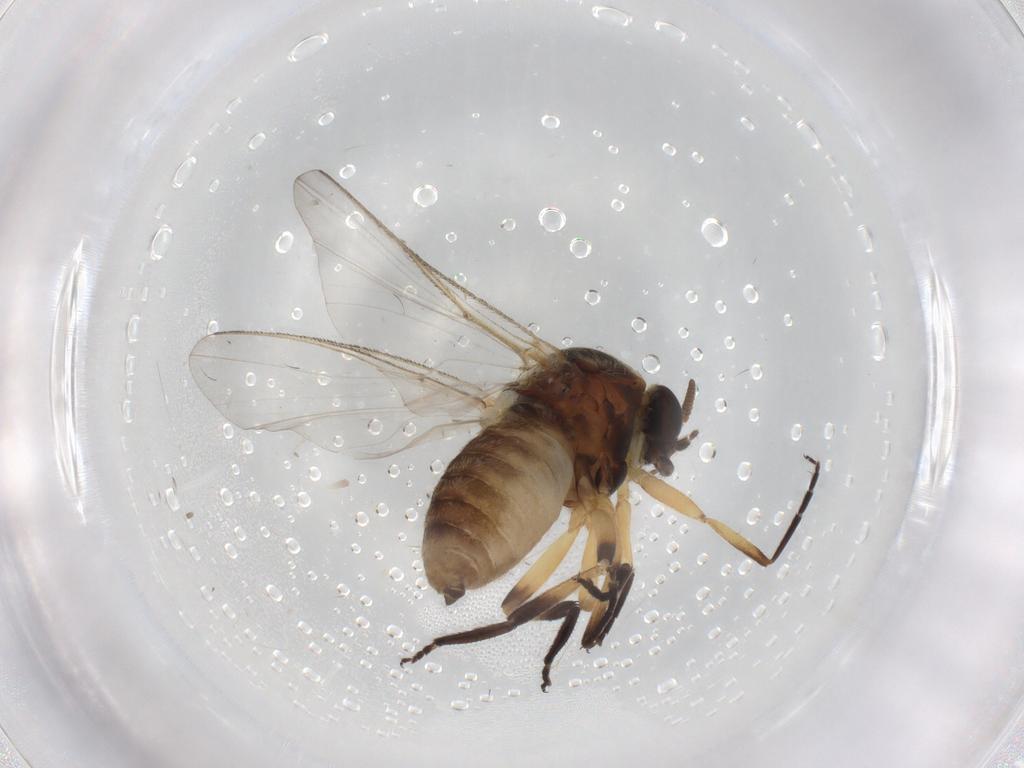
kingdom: Animalia
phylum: Arthropoda
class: Insecta
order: Diptera
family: Simuliidae
